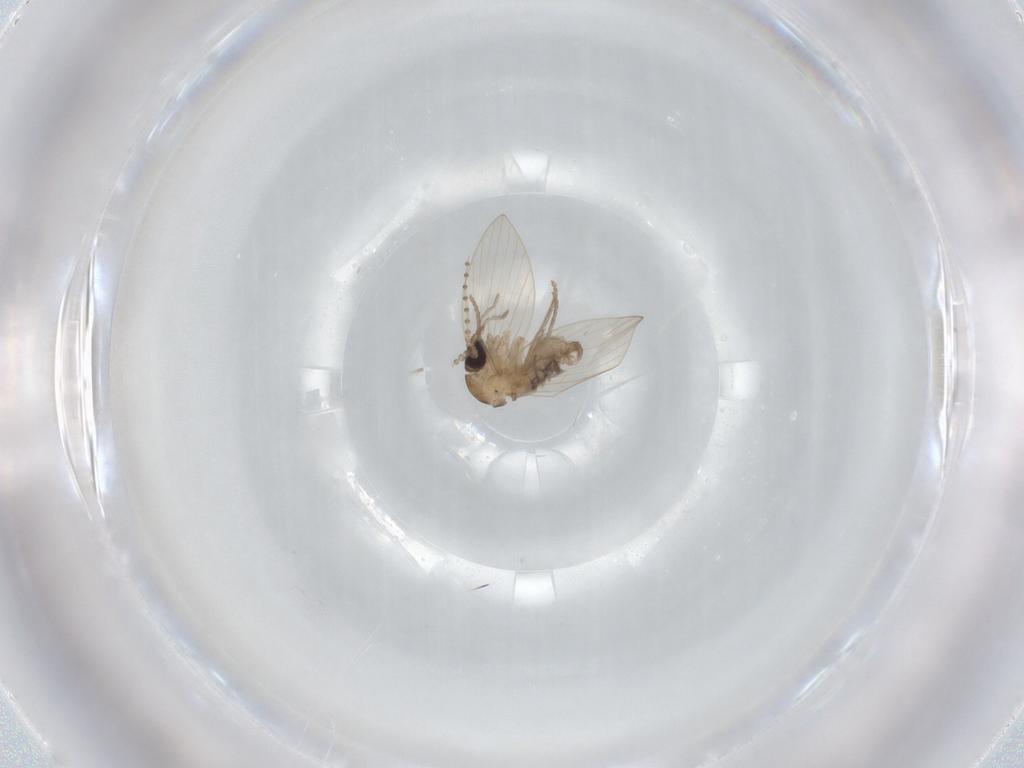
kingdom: Animalia
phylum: Arthropoda
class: Insecta
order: Diptera
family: Psychodidae
